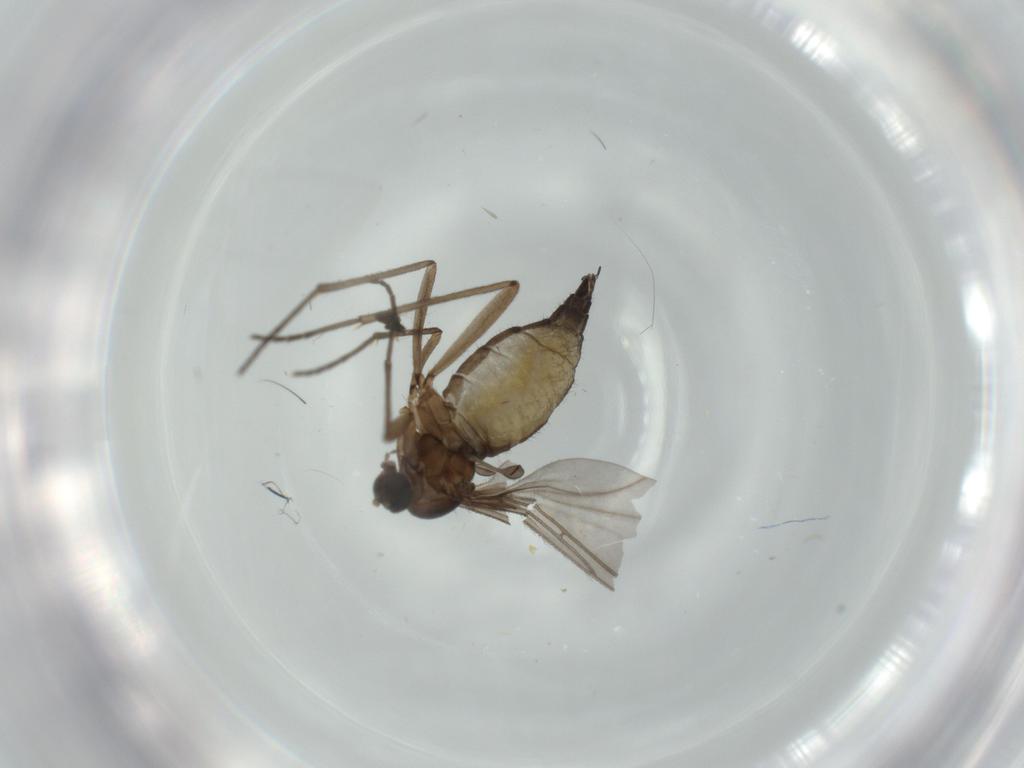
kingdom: Animalia
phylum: Arthropoda
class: Insecta
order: Diptera
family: Sciaridae
